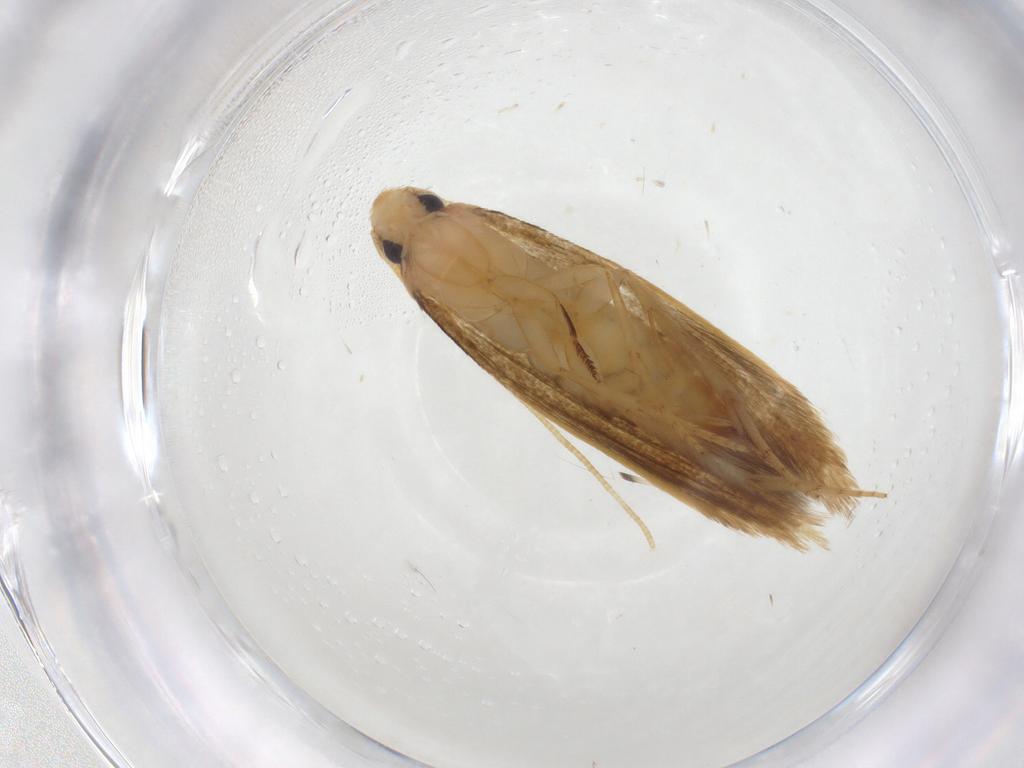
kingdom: Animalia
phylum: Arthropoda
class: Insecta
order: Lepidoptera
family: Tineidae
